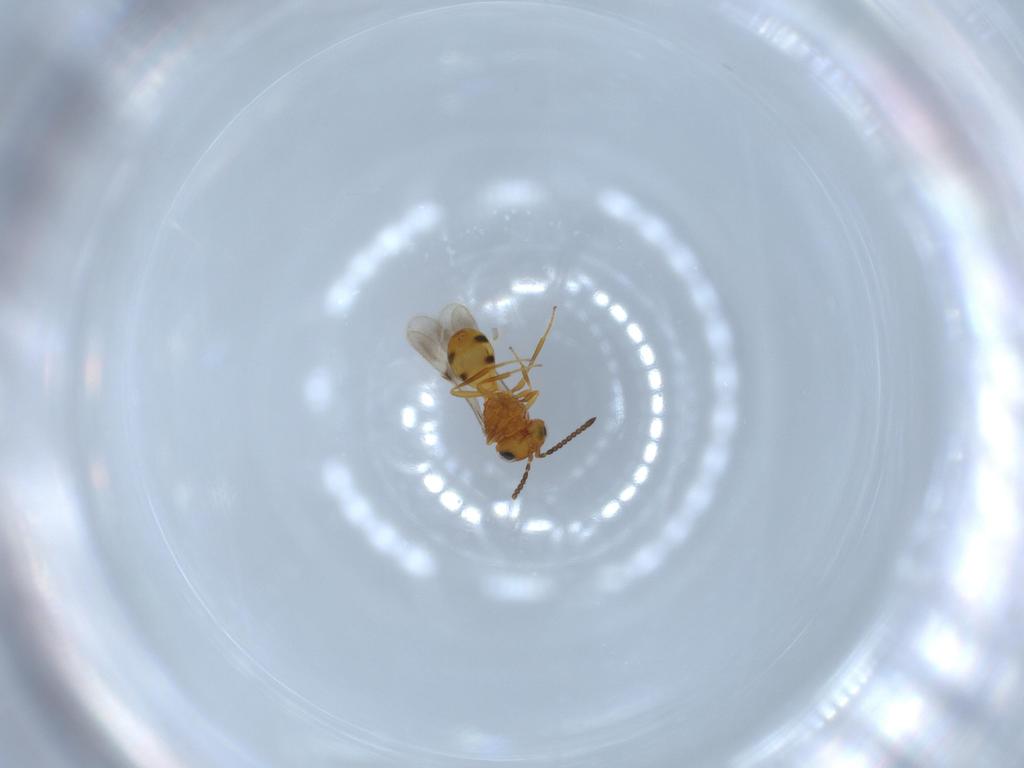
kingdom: Animalia
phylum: Arthropoda
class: Insecta
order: Hymenoptera
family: Scelionidae
